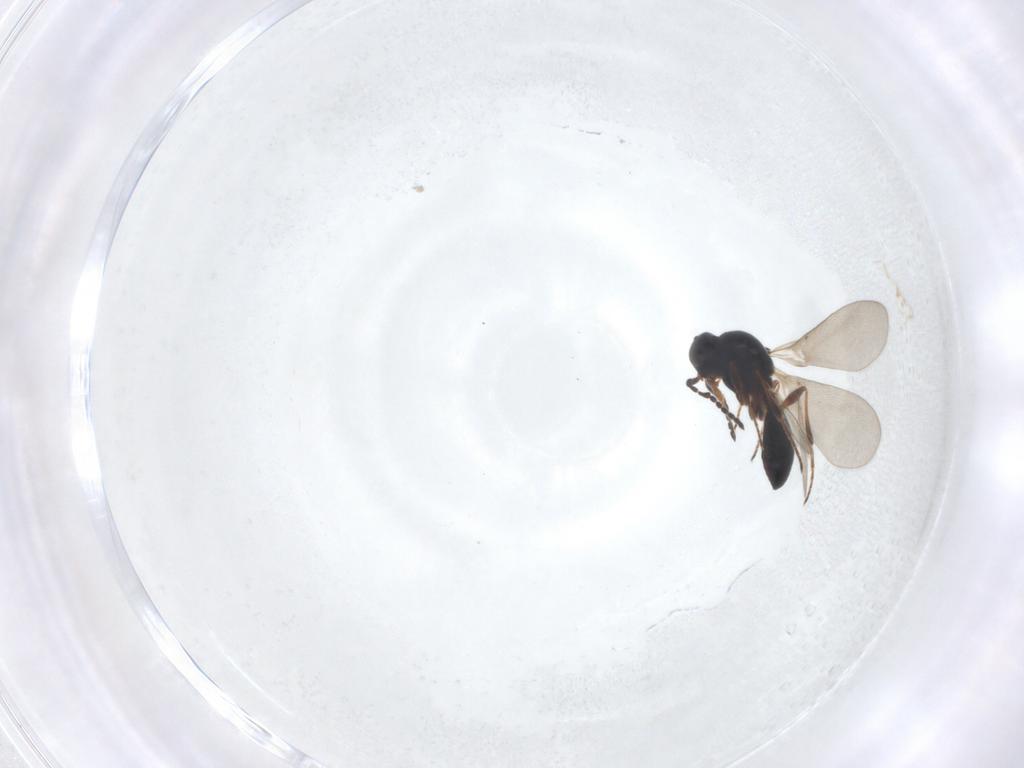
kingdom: Animalia
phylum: Arthropoda
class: Insecta
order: Hymenoptera
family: Platygastridae
